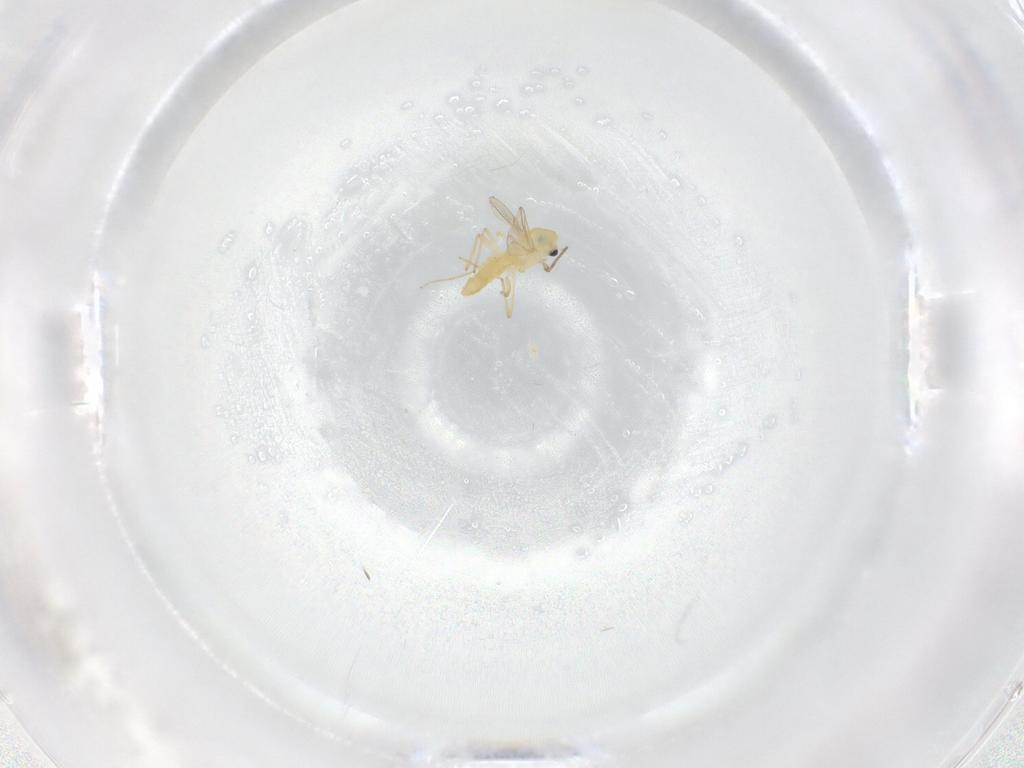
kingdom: Animalia
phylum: Arthropoda
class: Insecta
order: Diptera
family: Chironomidae
